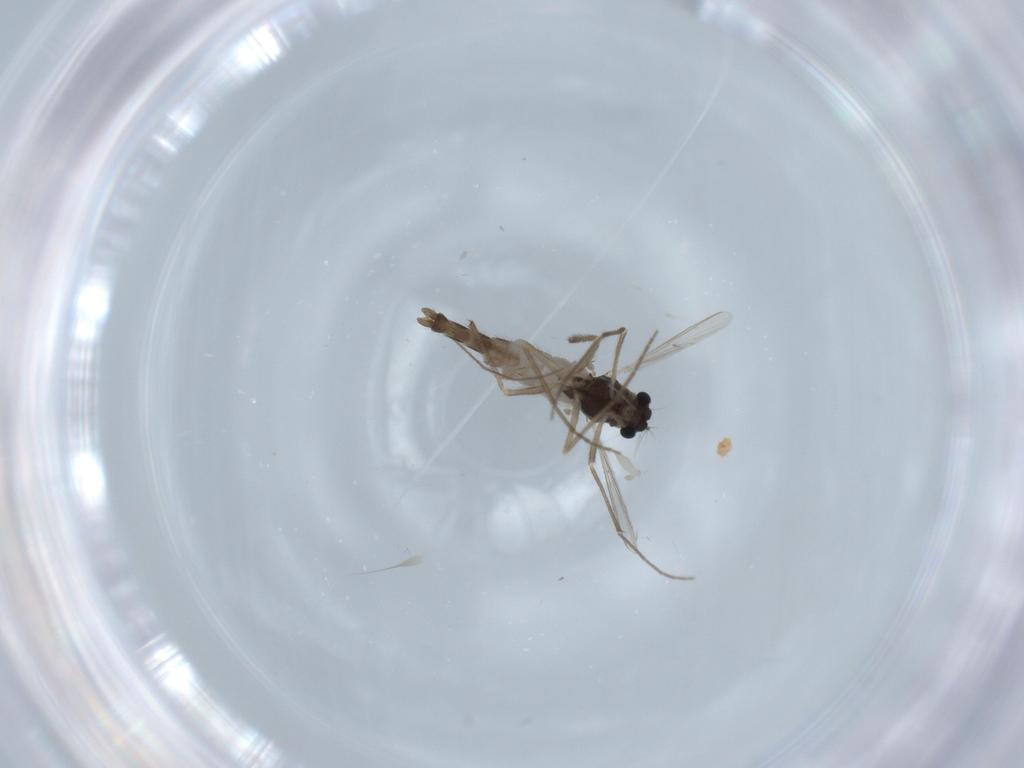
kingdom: Animalia
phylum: Arthropoda
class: Insecta
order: Diptera
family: Chironomidae
